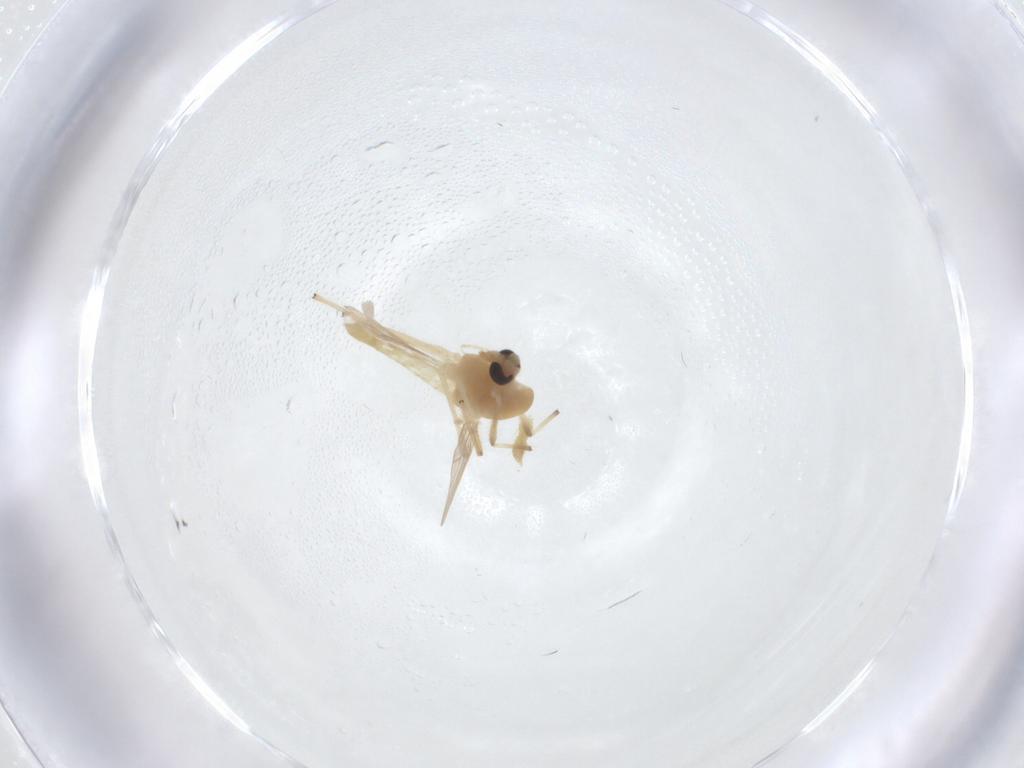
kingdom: Animalia
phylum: Arthropoda
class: Insecta
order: Diptera
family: Chironomidae
